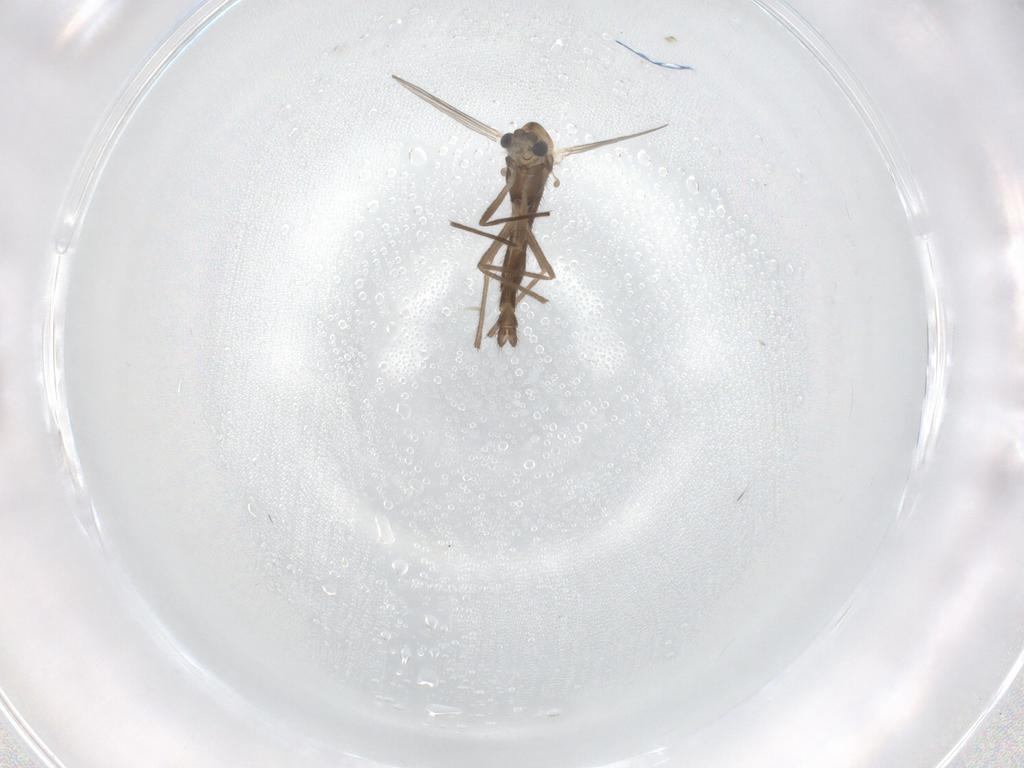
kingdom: Animalia
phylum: Arthropoda
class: Insecta
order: Diptera
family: Chironomidae
